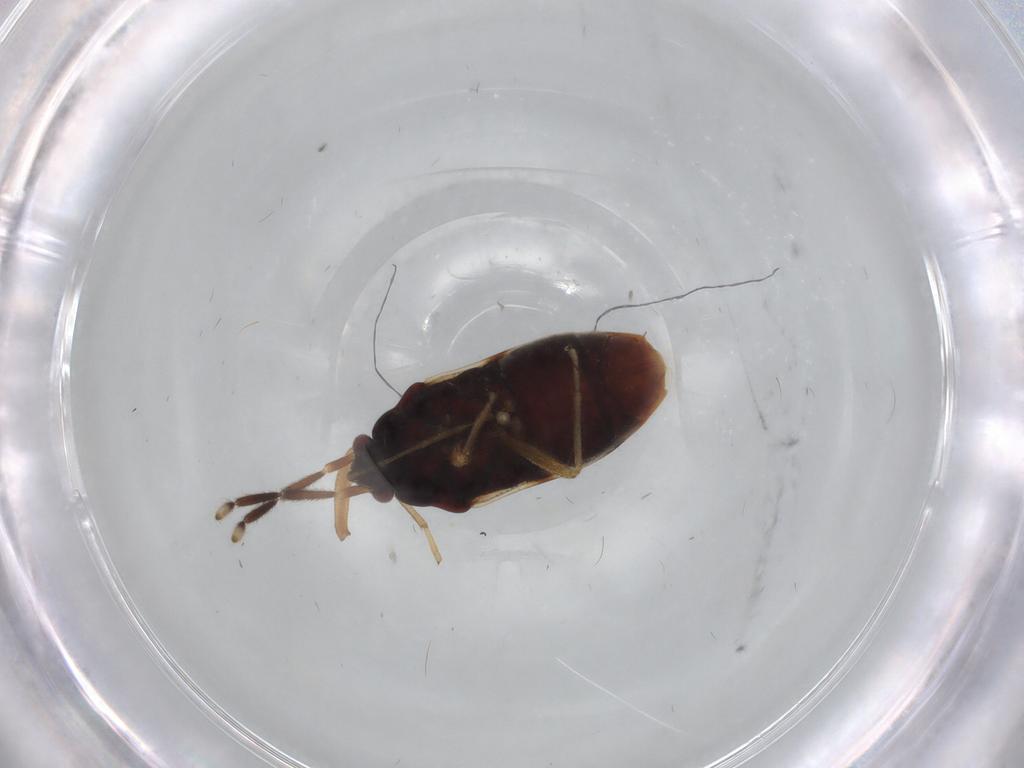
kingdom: Animalia
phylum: Arthropoda
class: Insecta
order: Hemiptera
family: Rhyparochromidae
